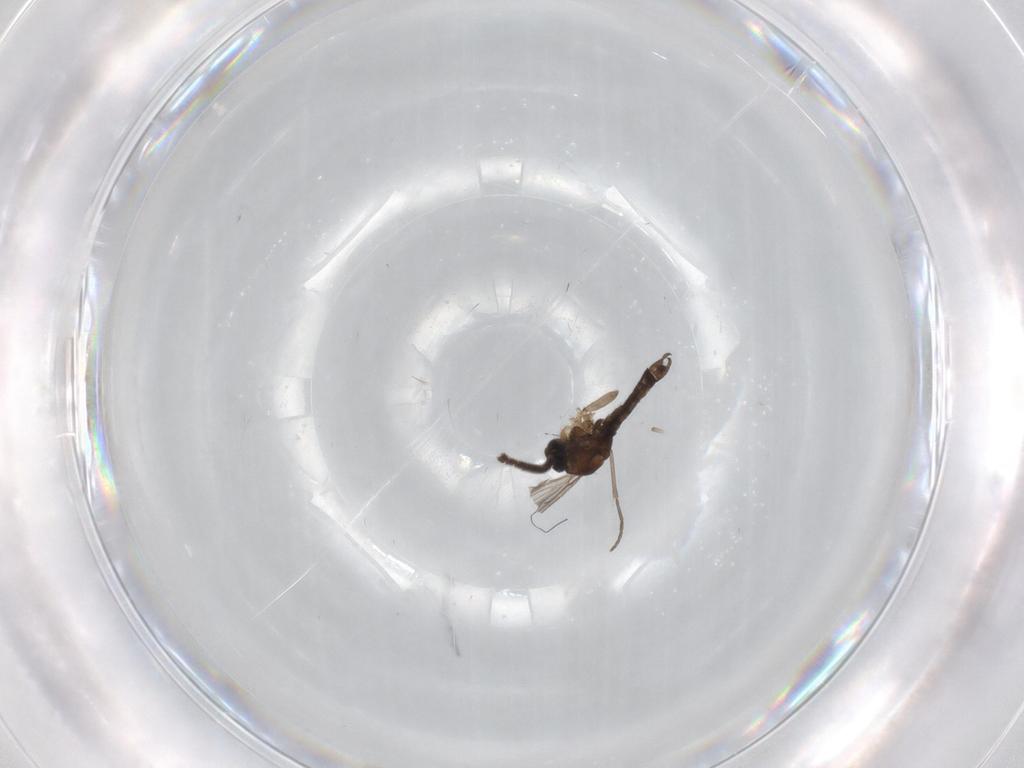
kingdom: Animalia
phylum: Arthropoda
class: Insecta
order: Diptera
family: Sciaridae
